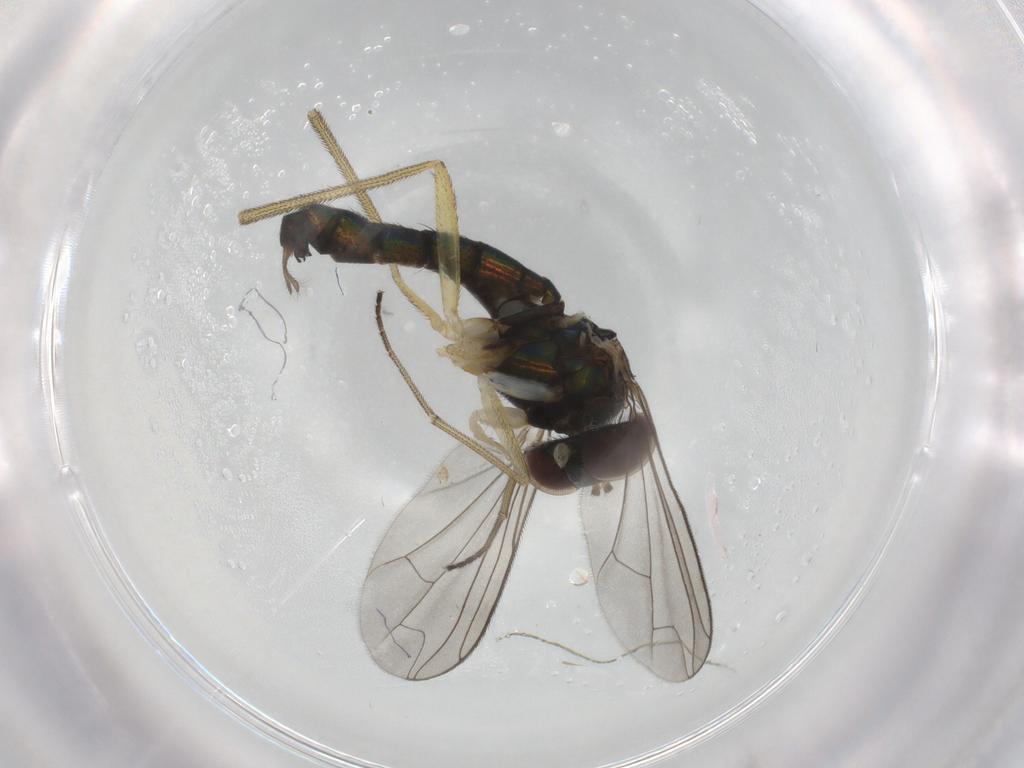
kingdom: Animalia
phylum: Arthropoda
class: Insecta
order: Diptera
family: Dolichopodidae
